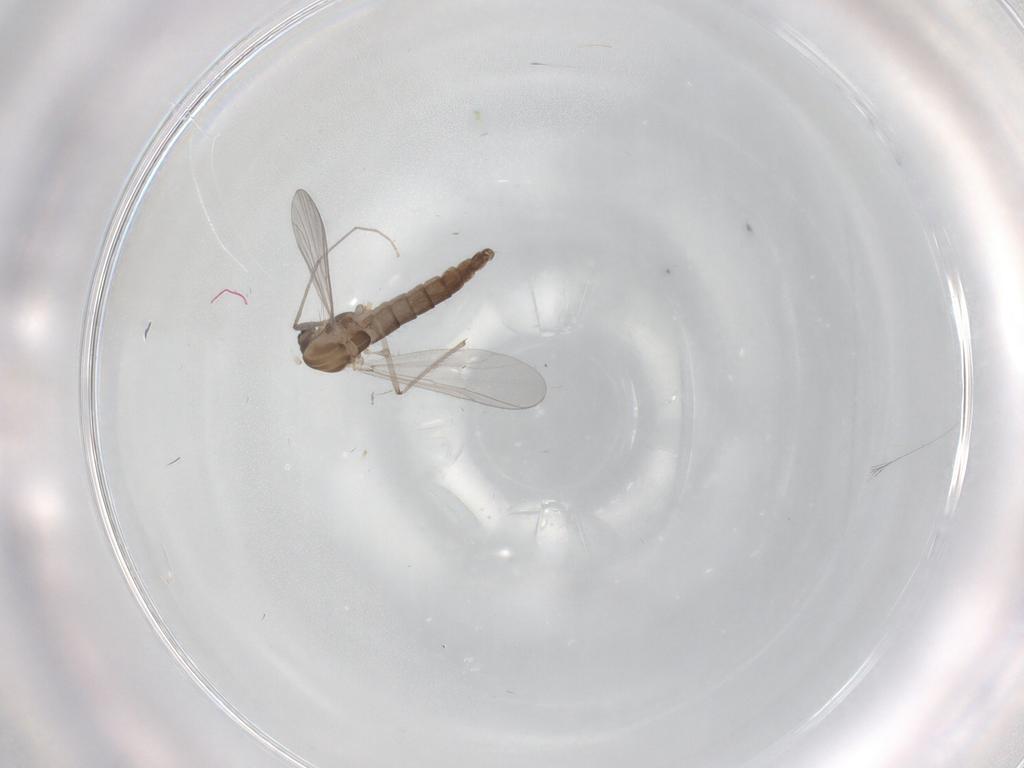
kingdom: Animalia
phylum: Arthropoda
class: Insecta
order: Diptera
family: Chironomidae
